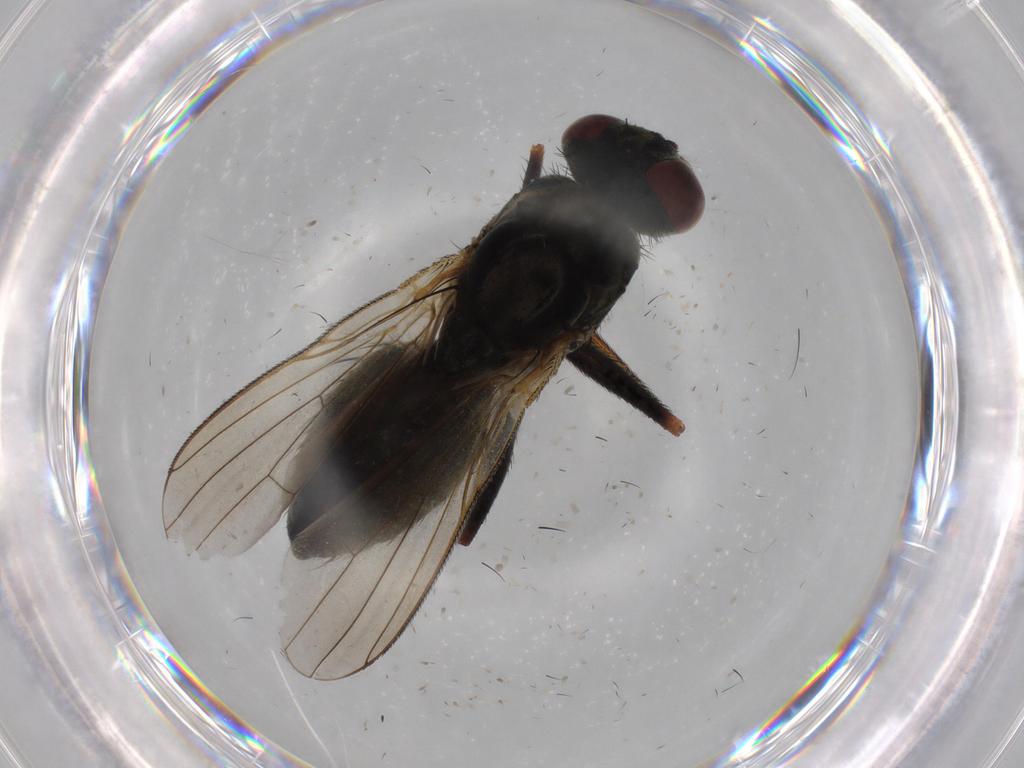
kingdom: Animalia
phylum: Arthropoda
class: Insecta
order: Diptera
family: Muscidae
